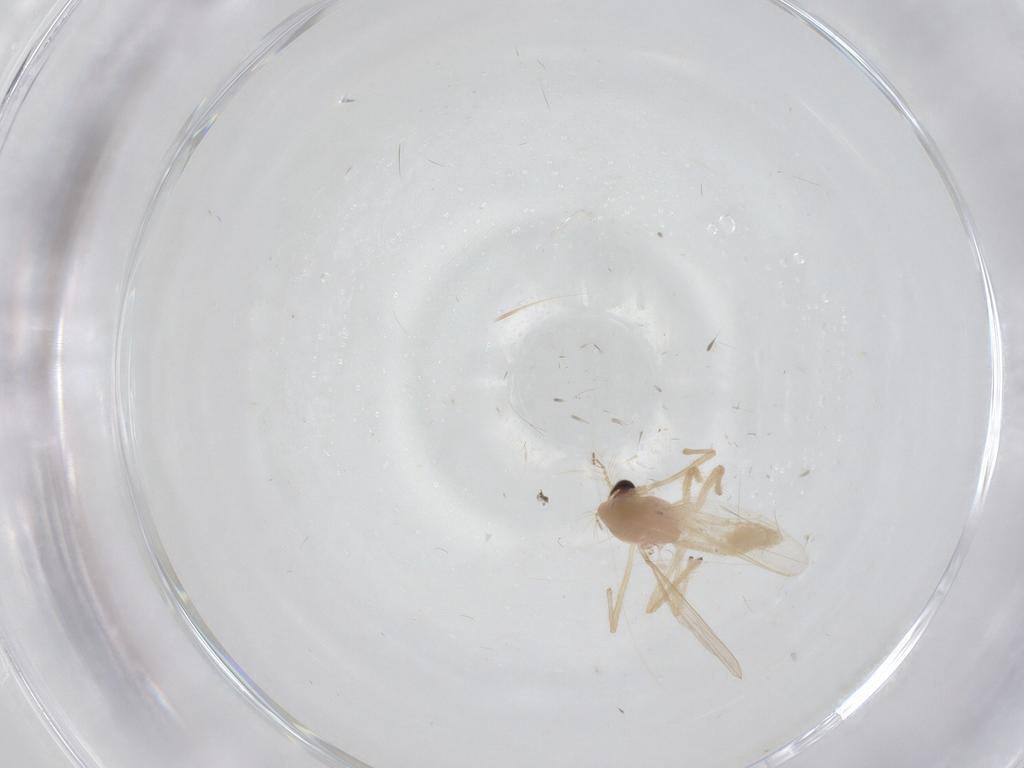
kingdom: Animalia
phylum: Arthropoda
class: Insecta
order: Diptera
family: Chironomidae
